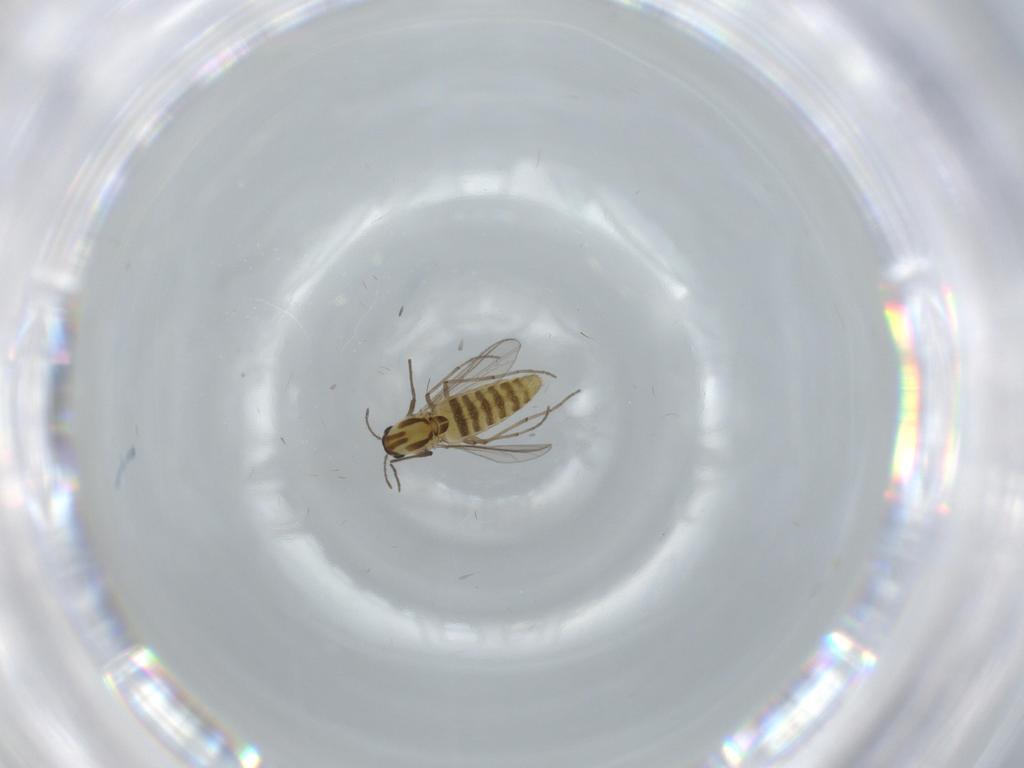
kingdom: Animalia
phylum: Arthropoda
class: Insecta
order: Diptera
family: Chironomidae
